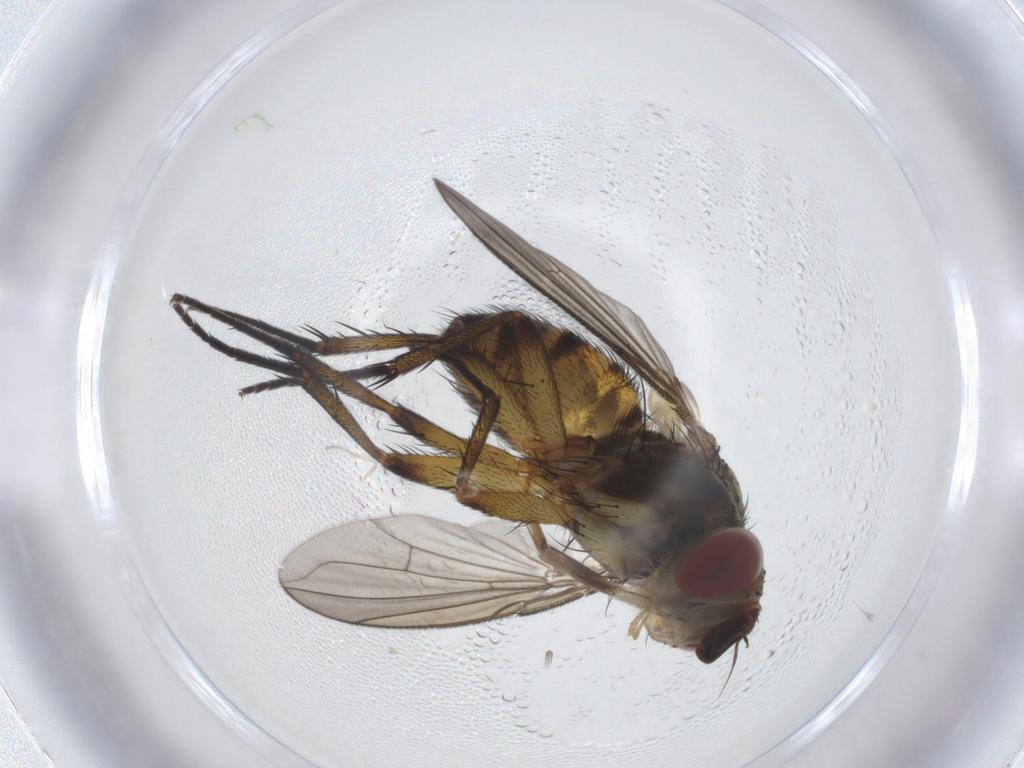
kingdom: Animalia
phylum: Arthropoda
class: Insecta
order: Diptera
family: Tachinidae
